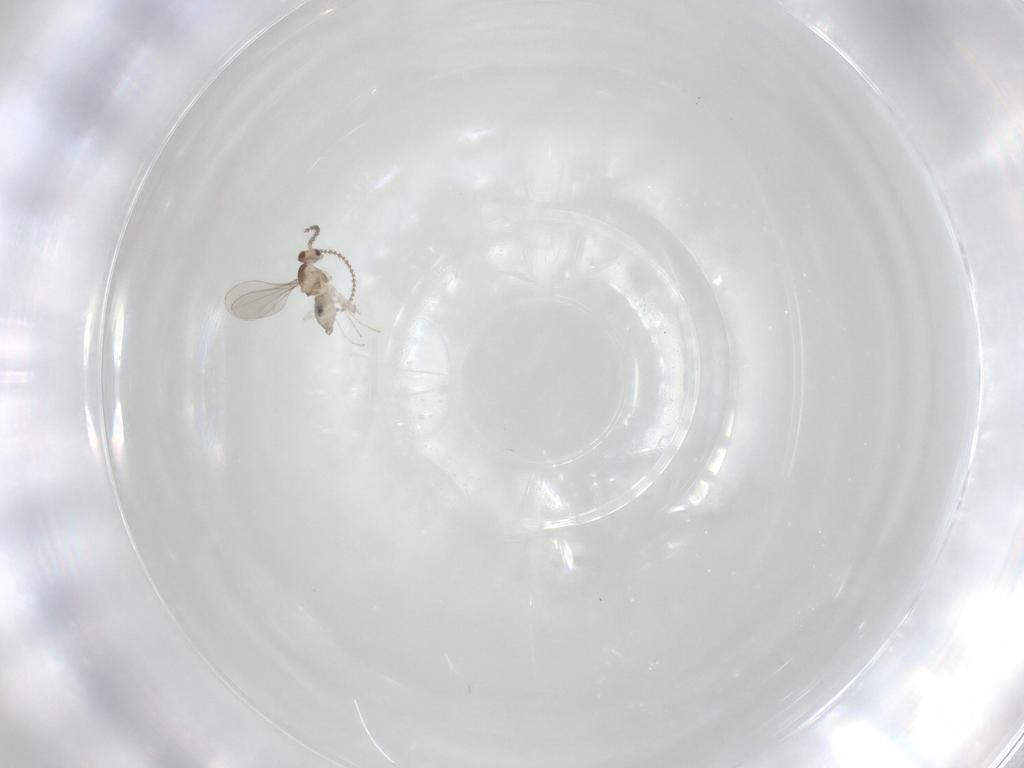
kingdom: Animalia
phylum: Arthropoda
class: Insecta
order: Diptera
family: Cecidomyiidae
